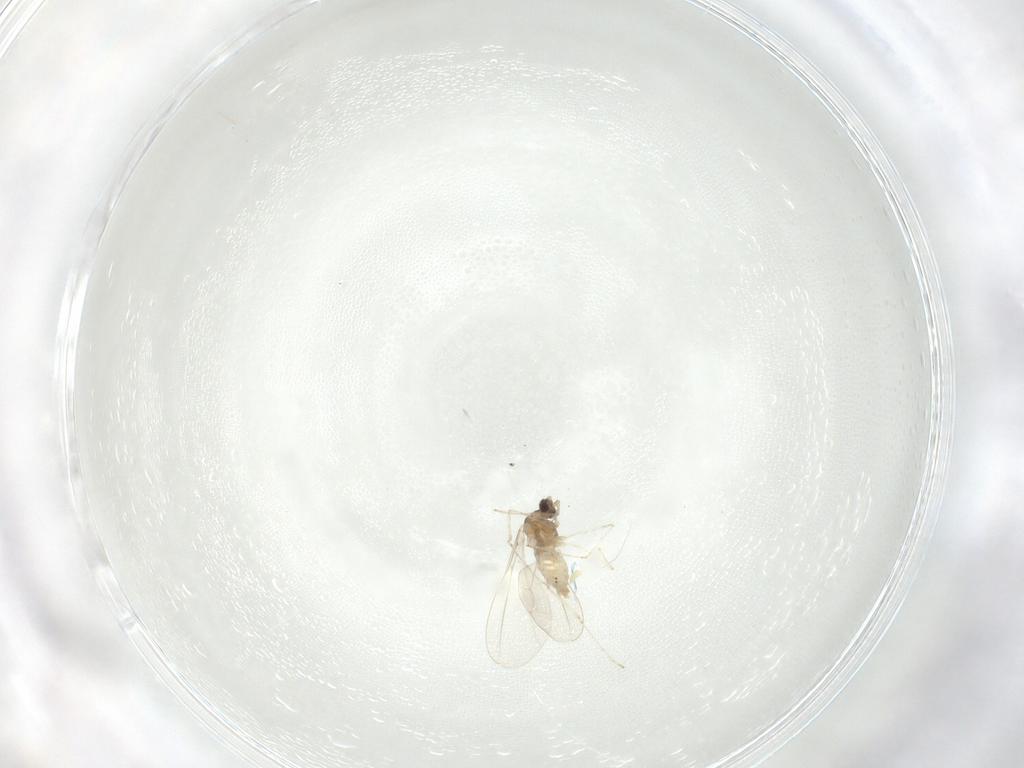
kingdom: Animalia
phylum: Arthropoda
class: Insecta
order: Diptera
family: Cecidomyiidae
